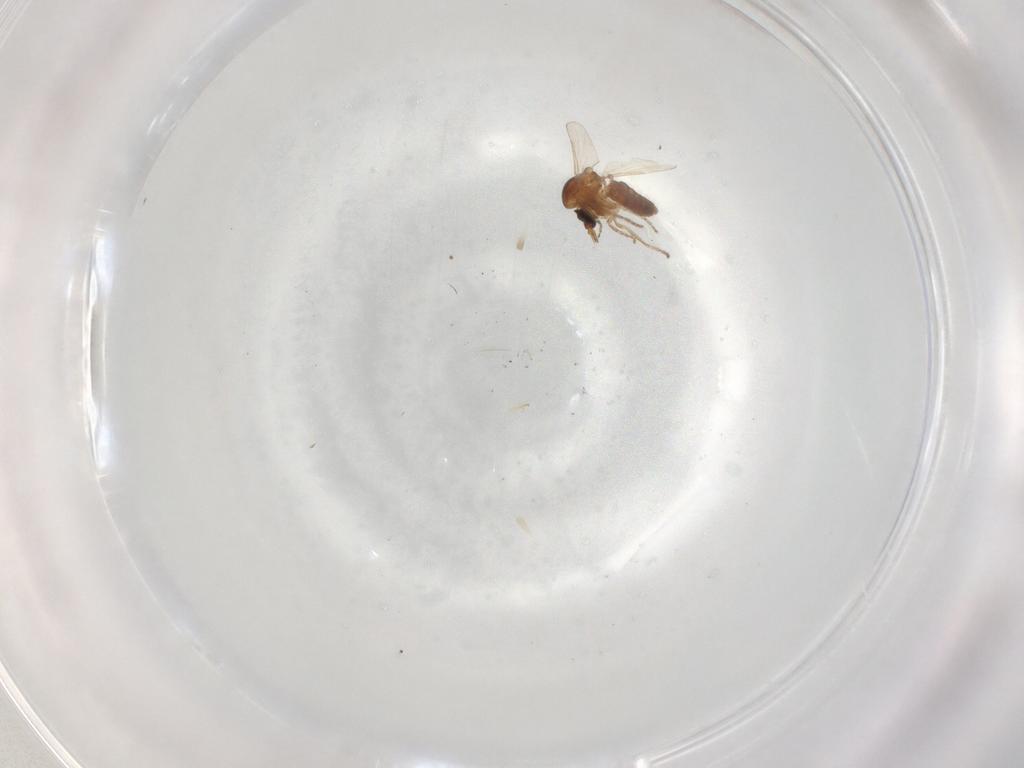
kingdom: Animalia
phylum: Arthropoda
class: Insecta
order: Diptera
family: Ceratopogonidae
